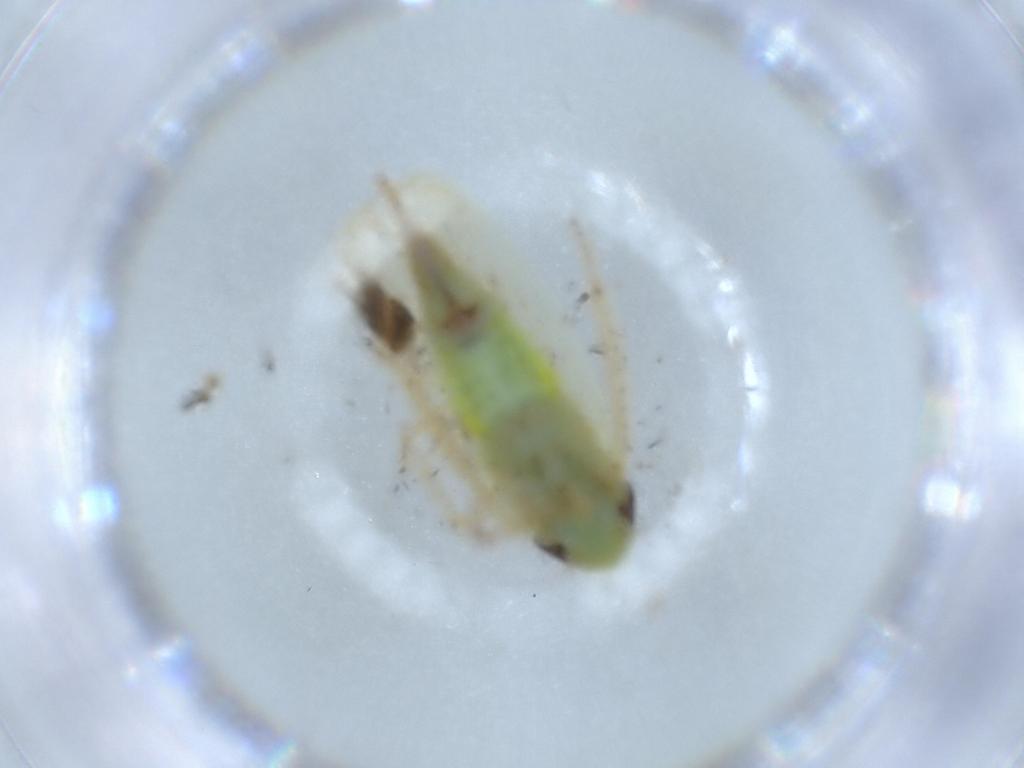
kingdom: Animalia
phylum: Arthropoda
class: Insecta
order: Hemiptera
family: Cicadellidae
